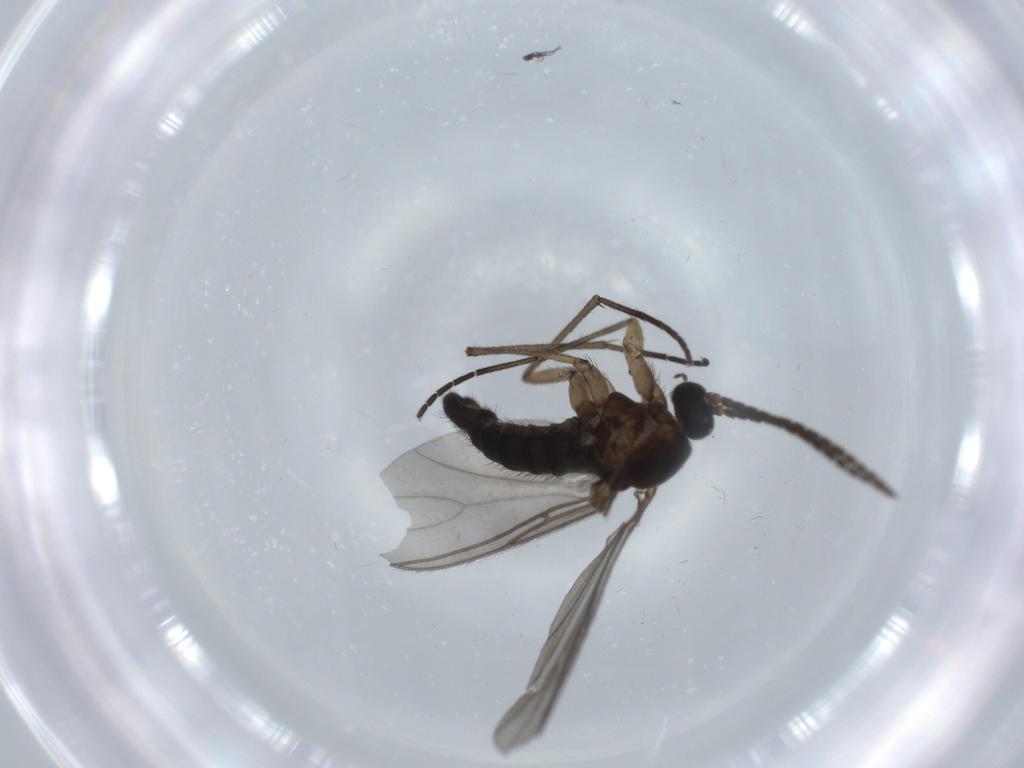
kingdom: Animalia
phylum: Arthropoda
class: Insecta
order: Diptera
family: Sciaridae
